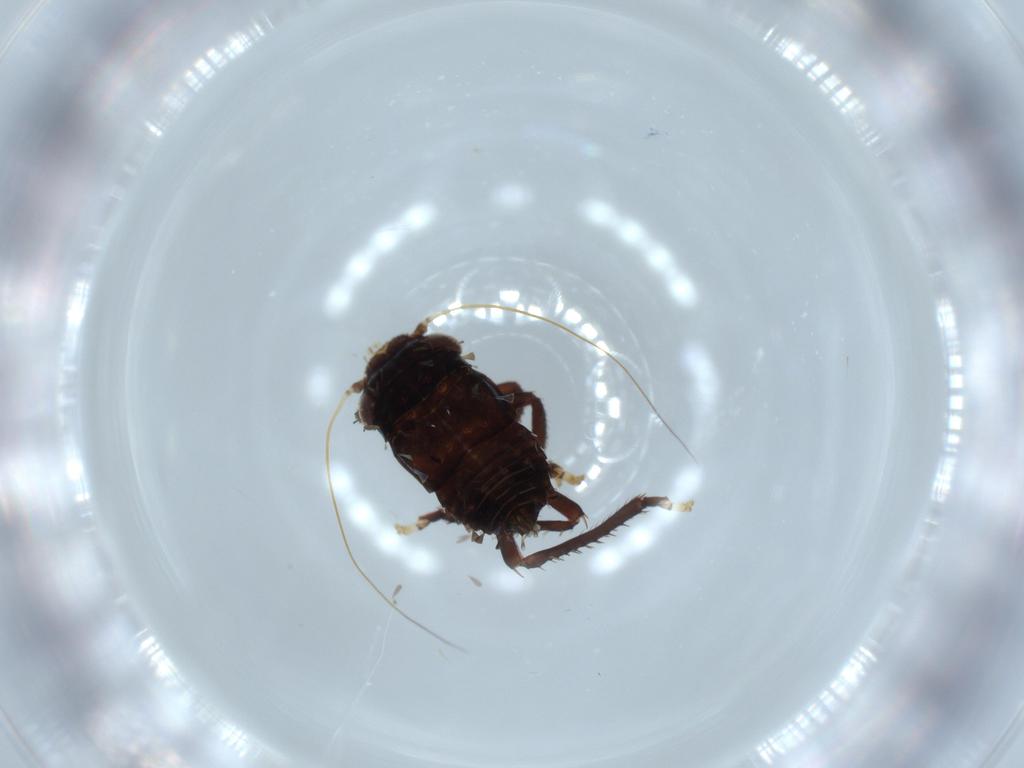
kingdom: Animalia
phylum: Arthropoda
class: Insecta
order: Hemiptera
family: Cicadellidae
